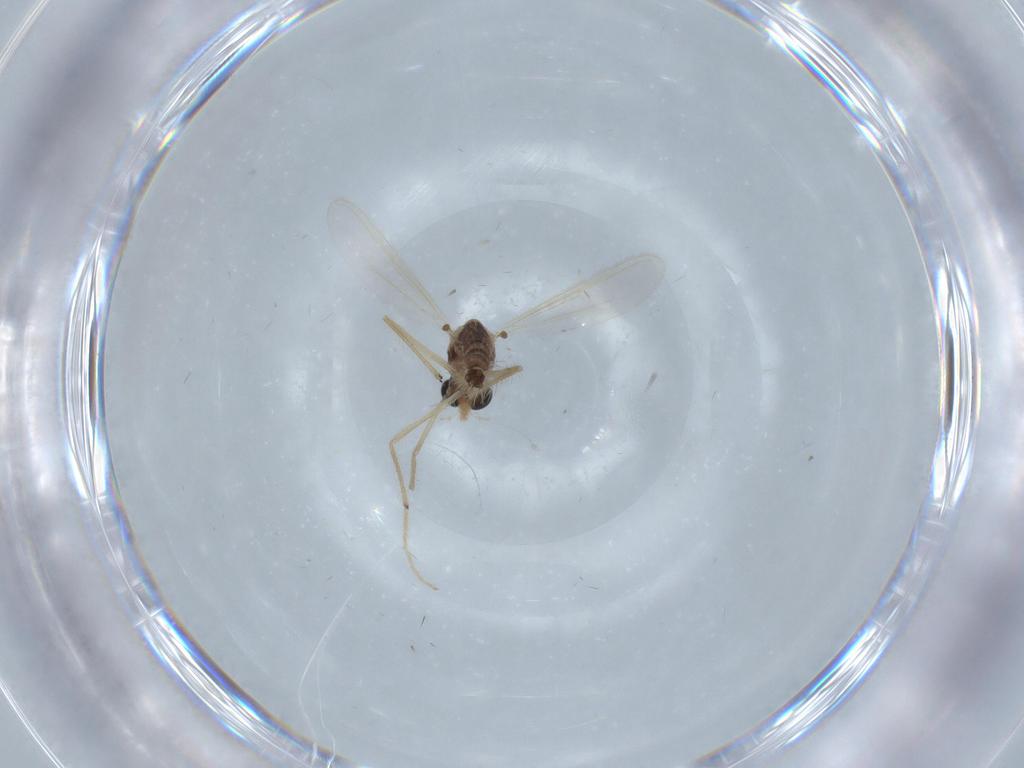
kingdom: Animalia
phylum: Arthropoda
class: Insecta
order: Diptera
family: Chironomidae
